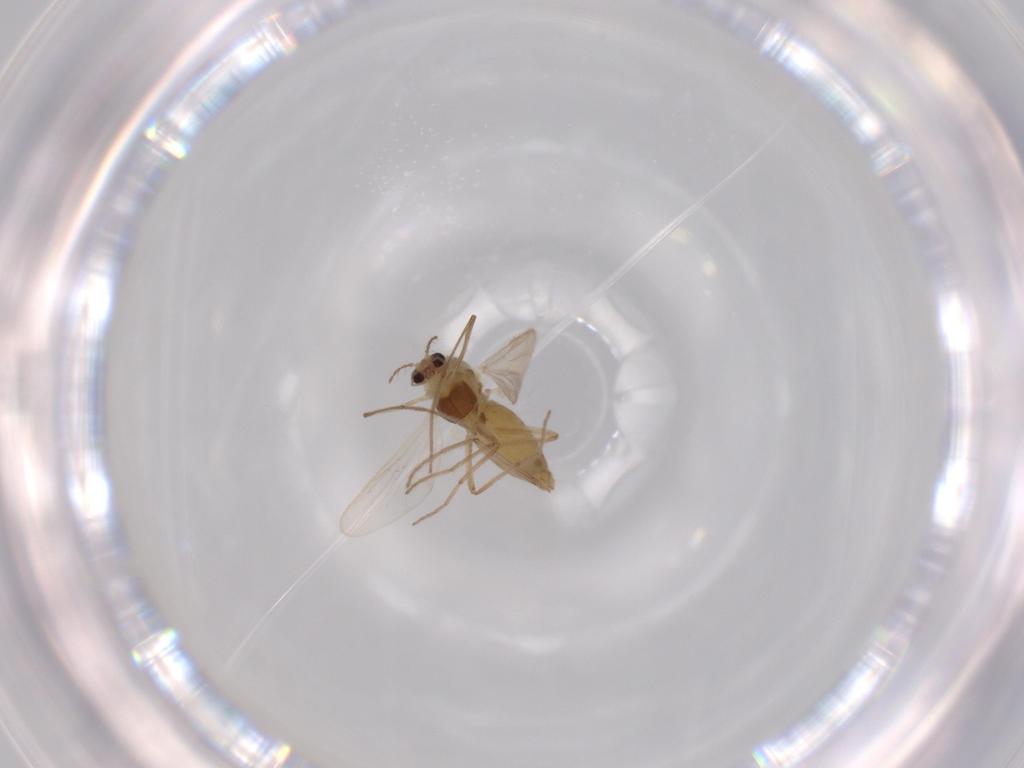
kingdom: Animalia
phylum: Arthropoda
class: Insecta
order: Diptera
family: Chironomidae
